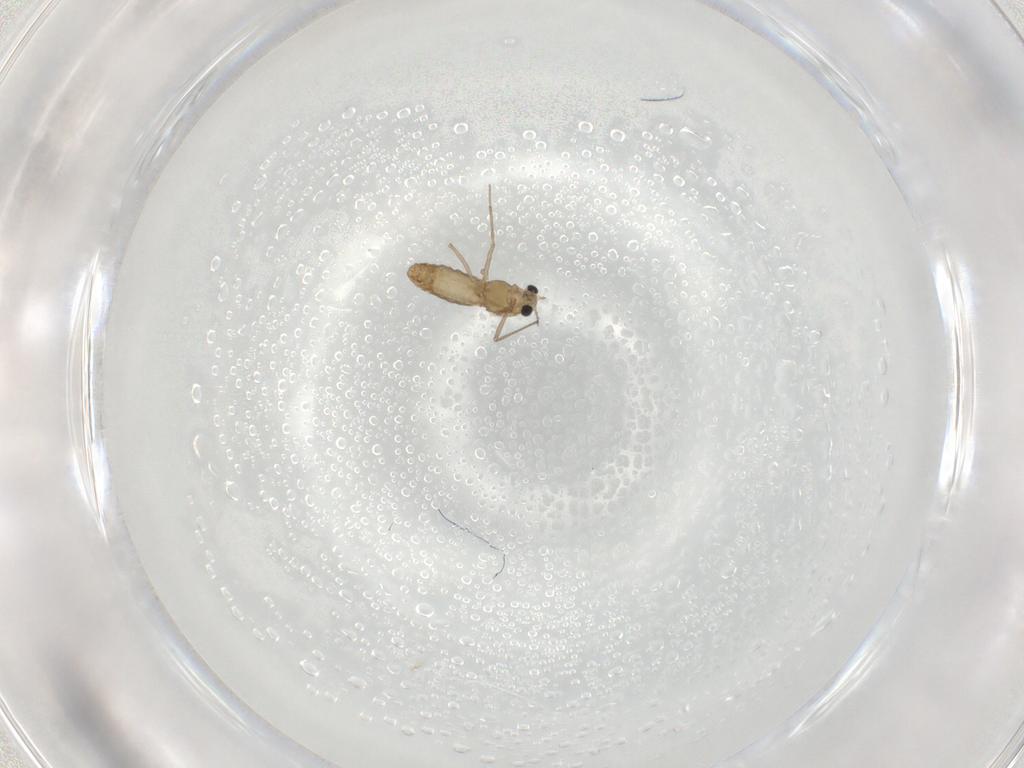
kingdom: Animalia
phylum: Arthropoda
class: Insecta
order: Diptera
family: Chironomidae
